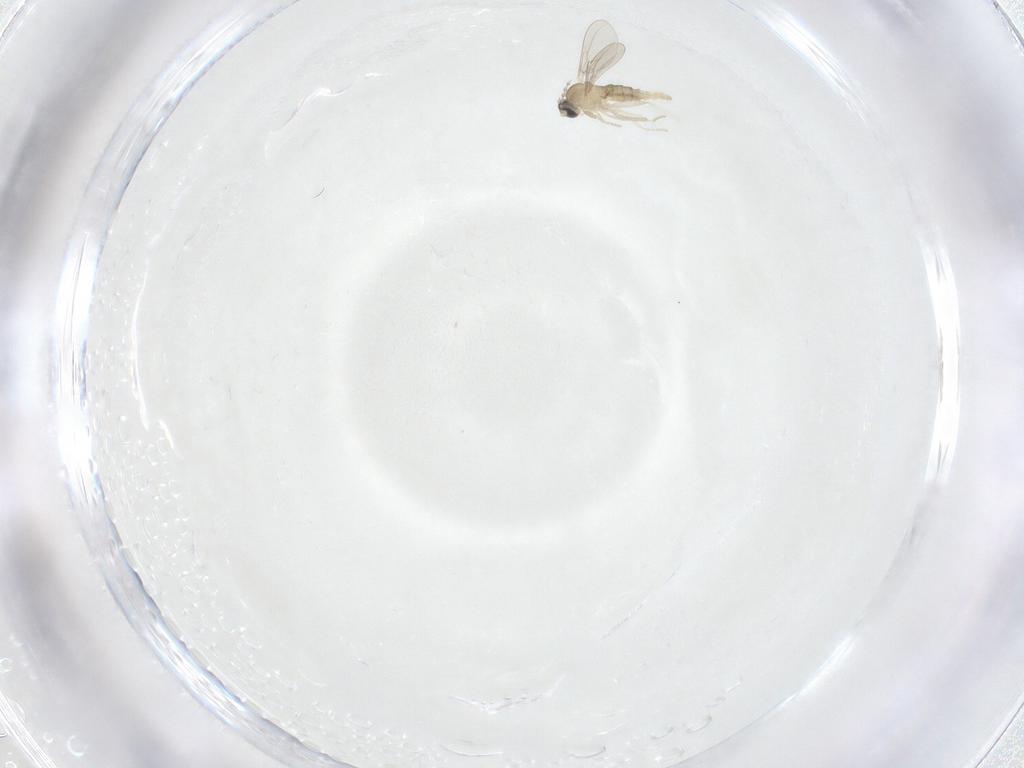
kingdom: Animalia
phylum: Arthropoda
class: Insecta
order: Diptera
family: Cecidomyiidae
